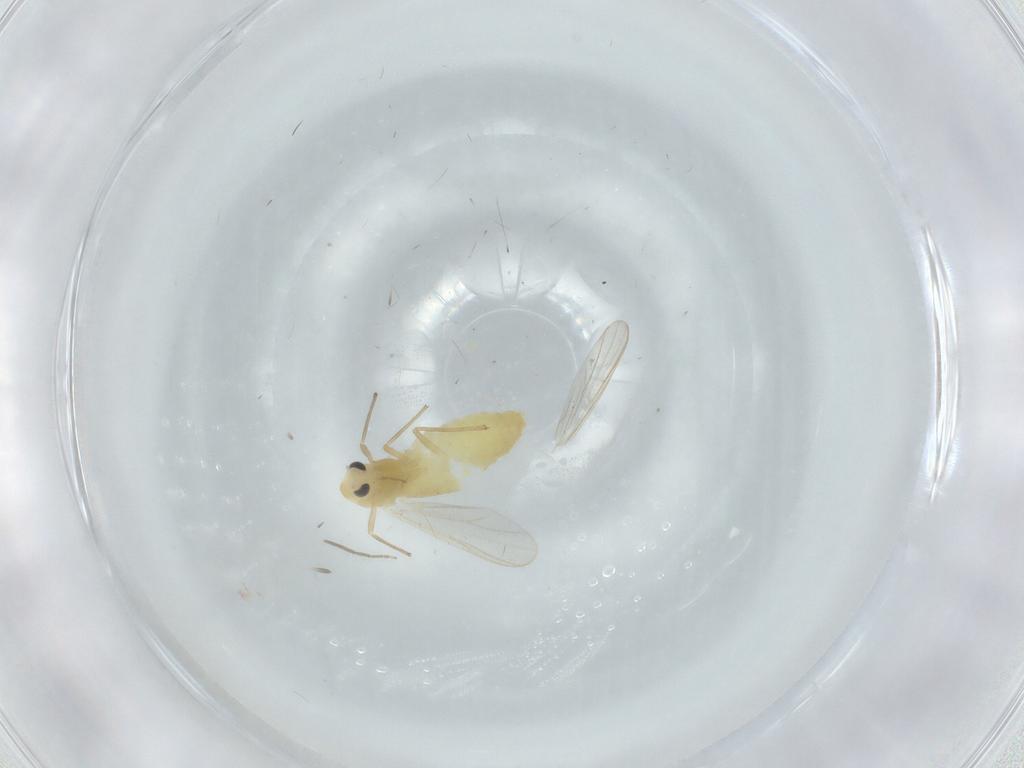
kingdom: Animalia
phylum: Arthropoda
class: Insecta
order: Diptera
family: Chironomidae
